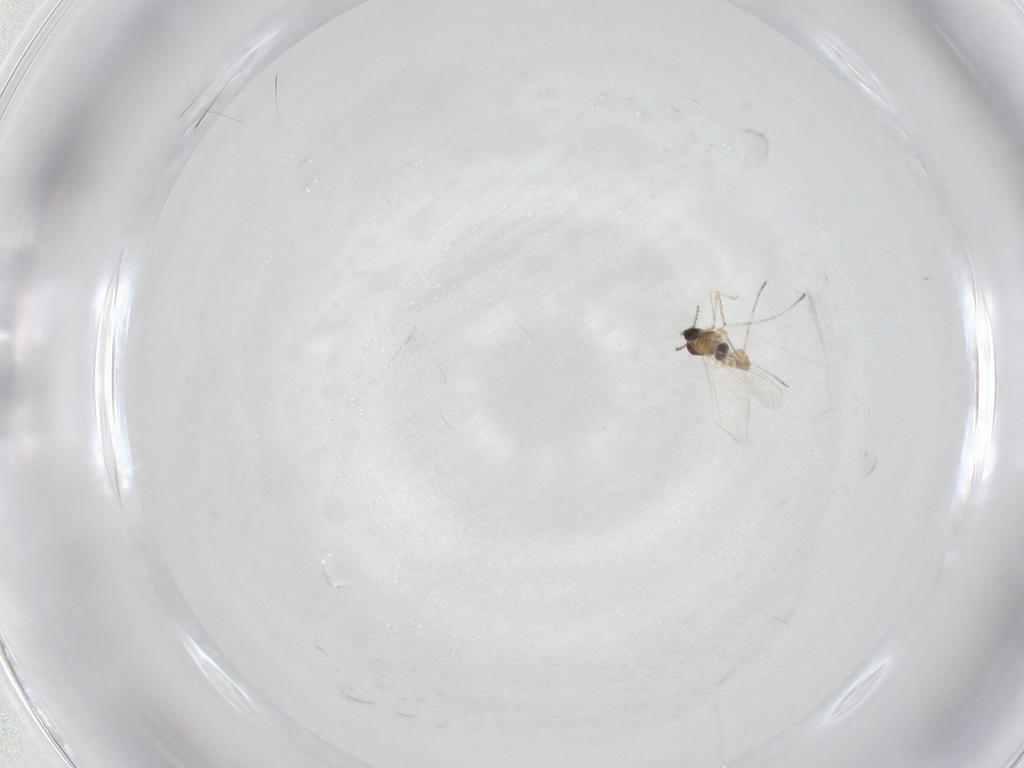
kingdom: Animalia
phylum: Arthropoda
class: Insecta
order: Diptera
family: Cecidomyiidae
